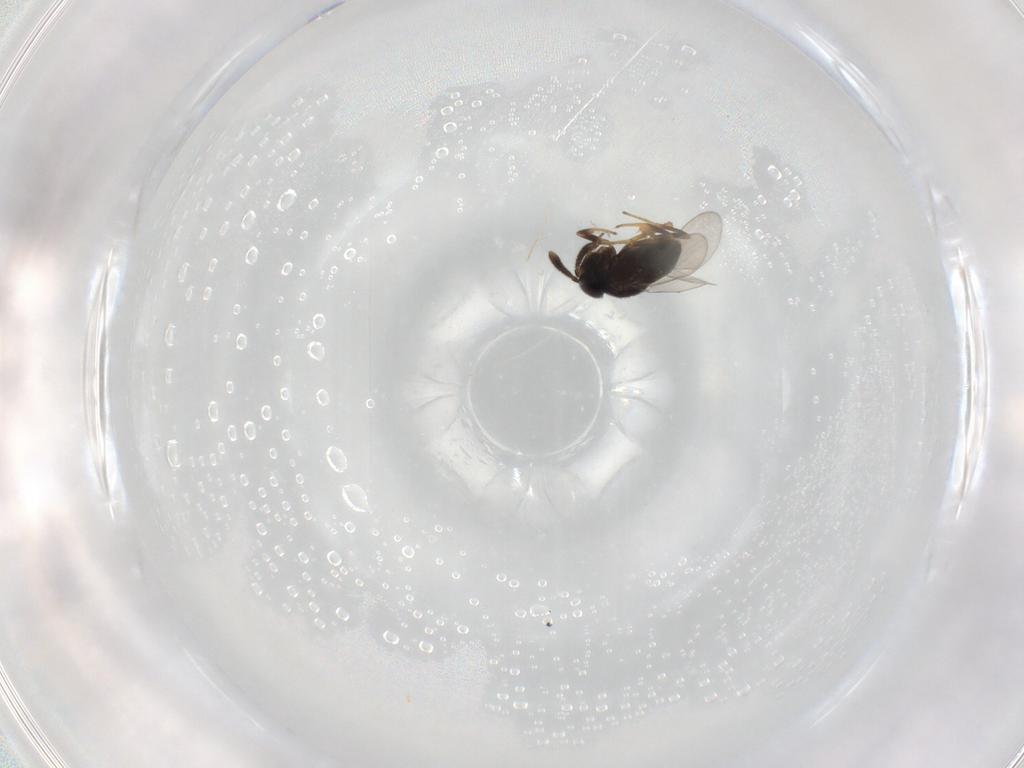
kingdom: Animalia
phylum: Arthropoda
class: Insecta
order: Hymenoptera
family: Encyrtidae
